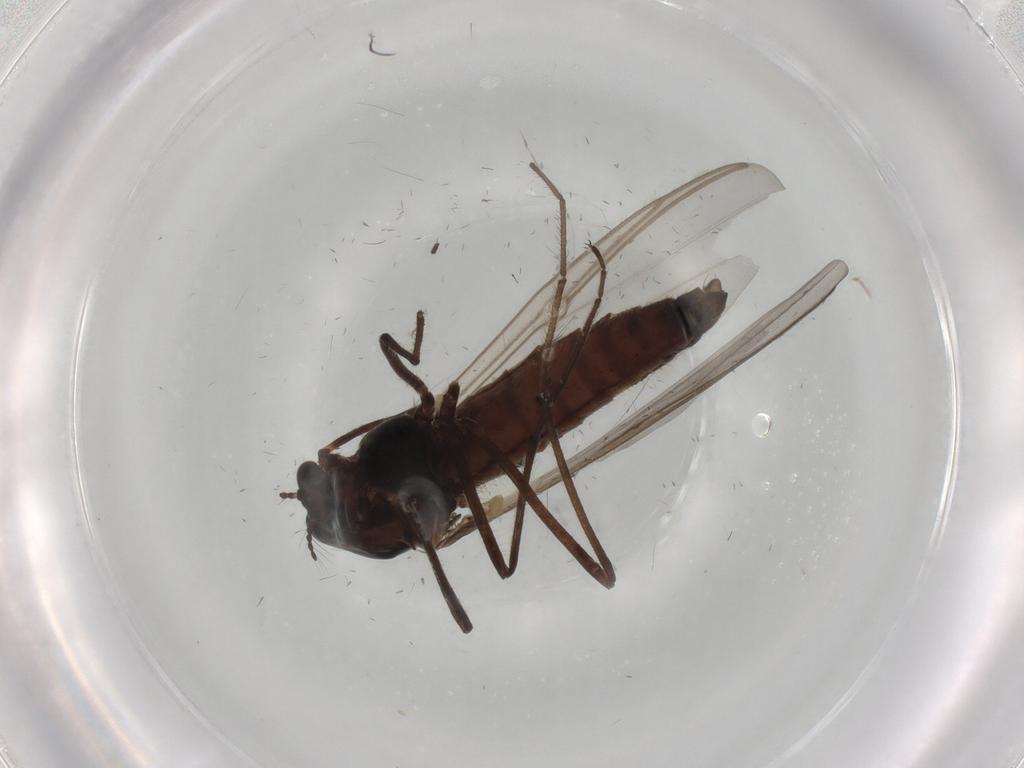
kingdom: Animalia
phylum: Arthropoda
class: Insecta
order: Diptera
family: Chironomidae
